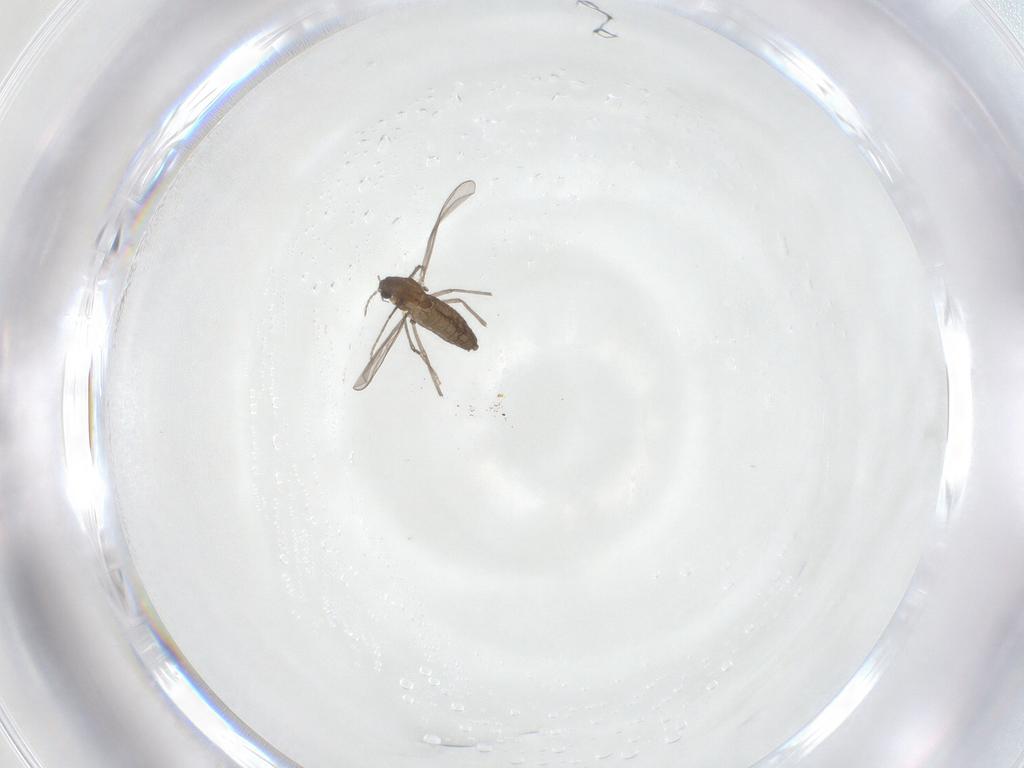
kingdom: Animalia
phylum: Arthropoda
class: Insecta
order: Diptera
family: Chironomidae
